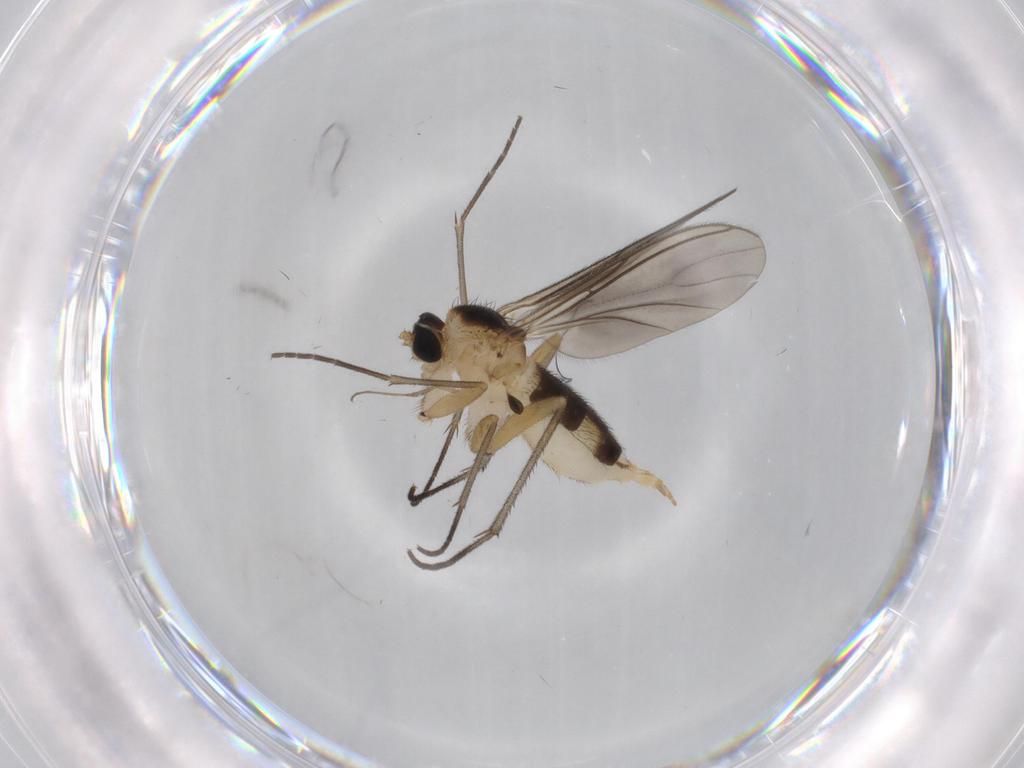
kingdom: Animalia
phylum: Arthropoda
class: Insecta
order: Diptera
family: Sciaridae
